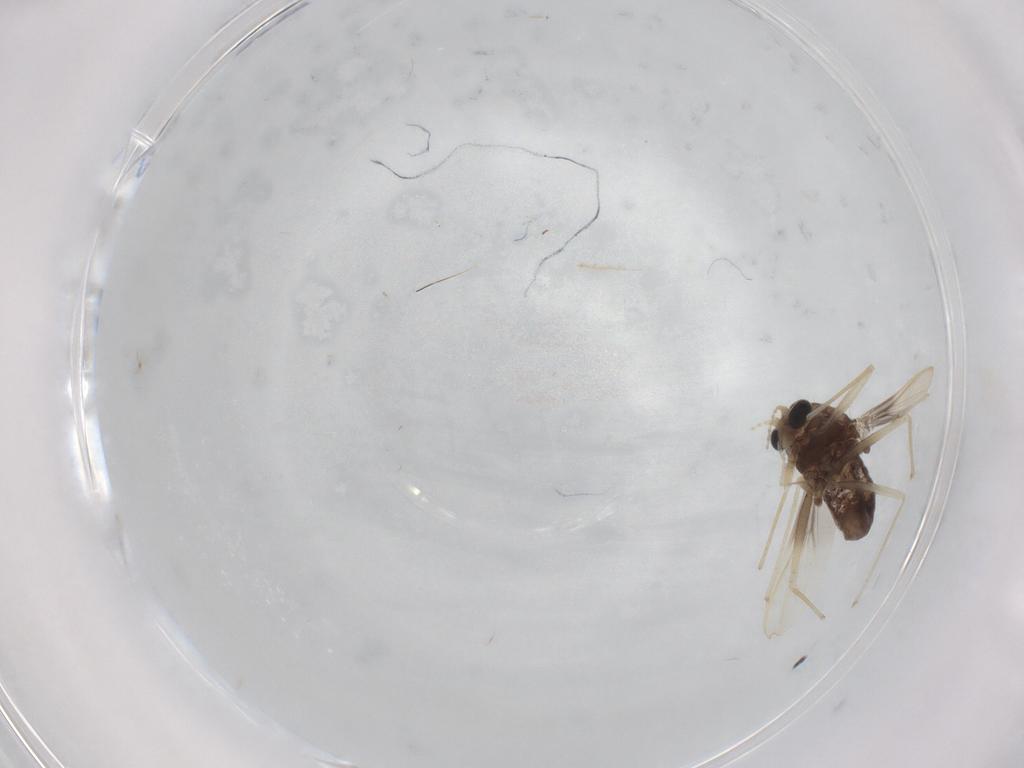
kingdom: Animalia
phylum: Arthropoda
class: Insecta
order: Diptera
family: Chironomidae
